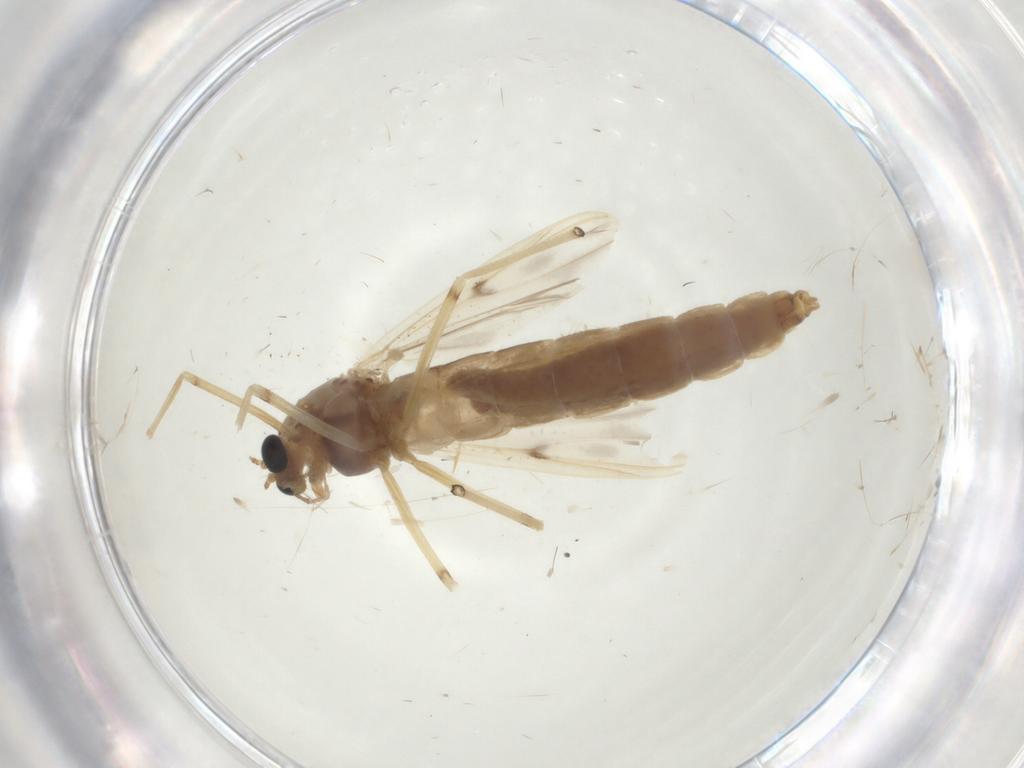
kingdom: Animalia
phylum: Arthropoda
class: Insecta
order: Diptera
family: Chironomidae
